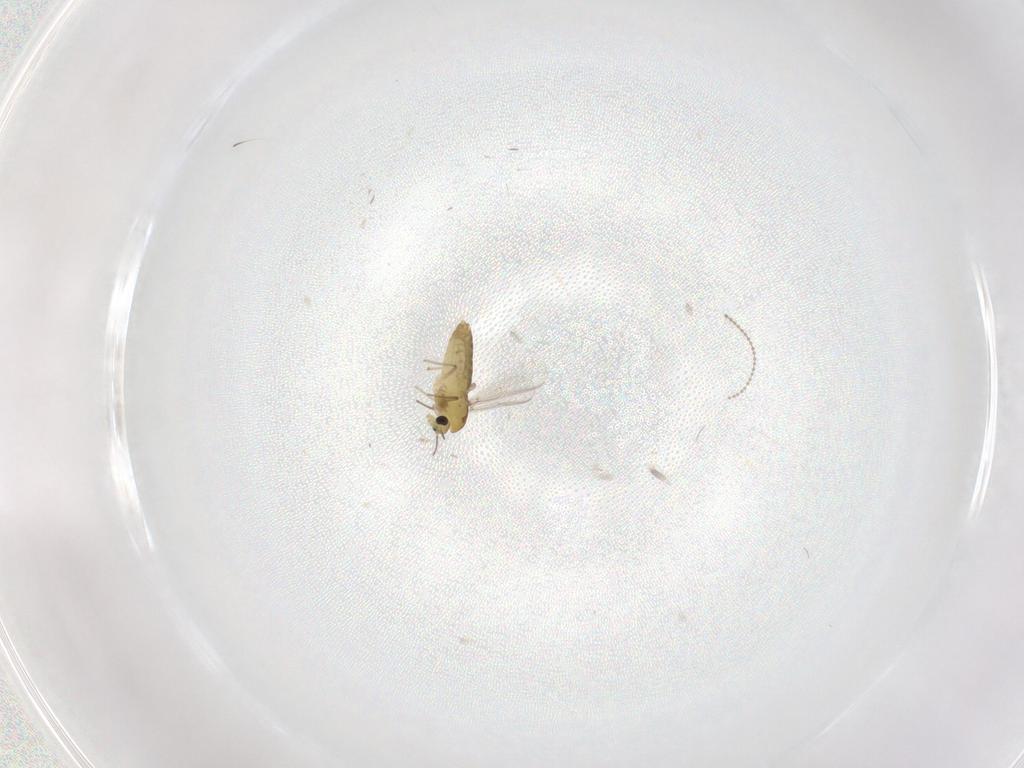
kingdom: Animalia
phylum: Arthropoda
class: Insecta
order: Diptera
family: Chironomidae
